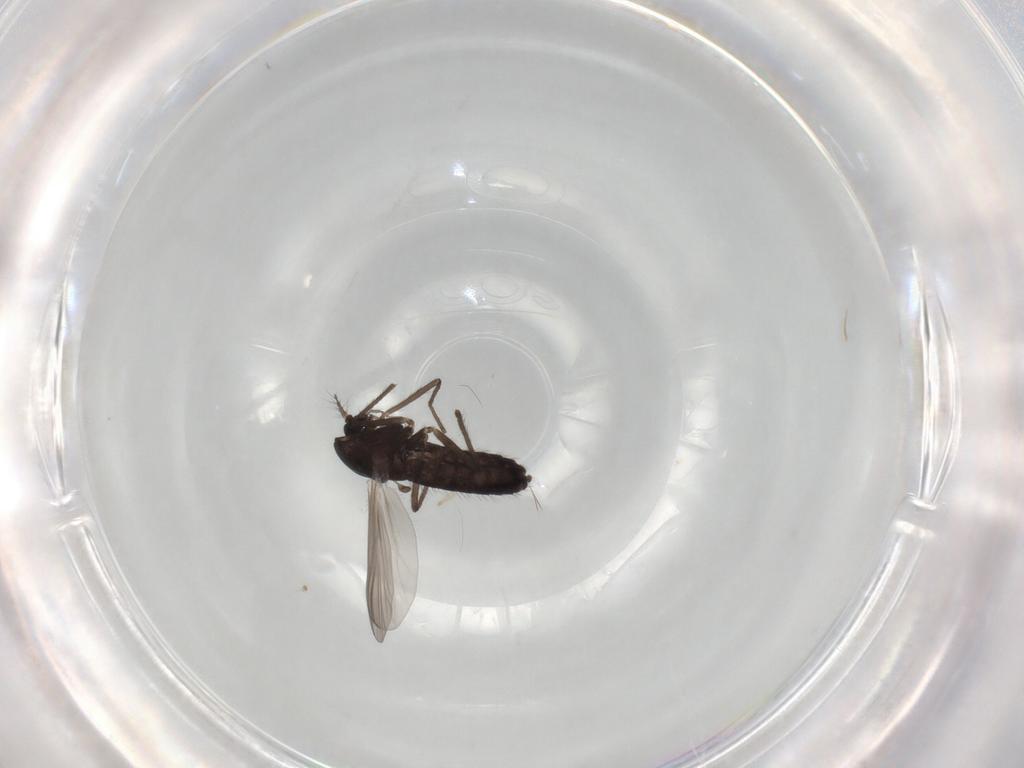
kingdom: Animalia
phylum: Arthropoda
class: Insecta
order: Diptera
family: Chironomidae
